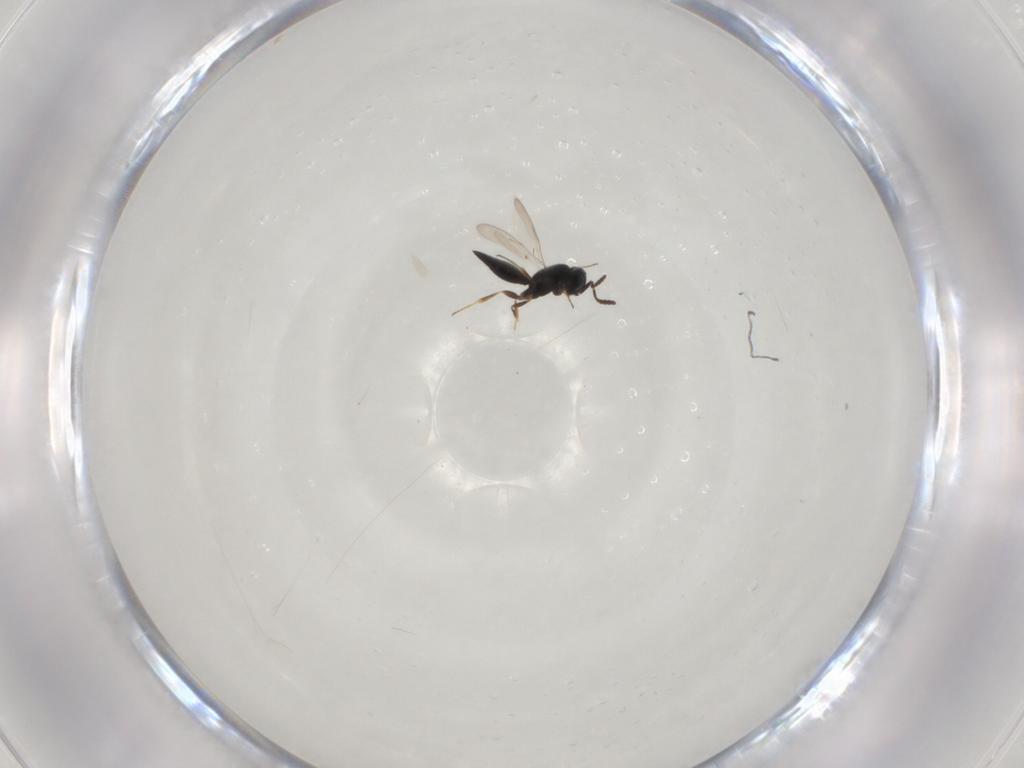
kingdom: Animalia
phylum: Arthropoda
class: Insecta
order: Hymenoptera
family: Scelionidae
